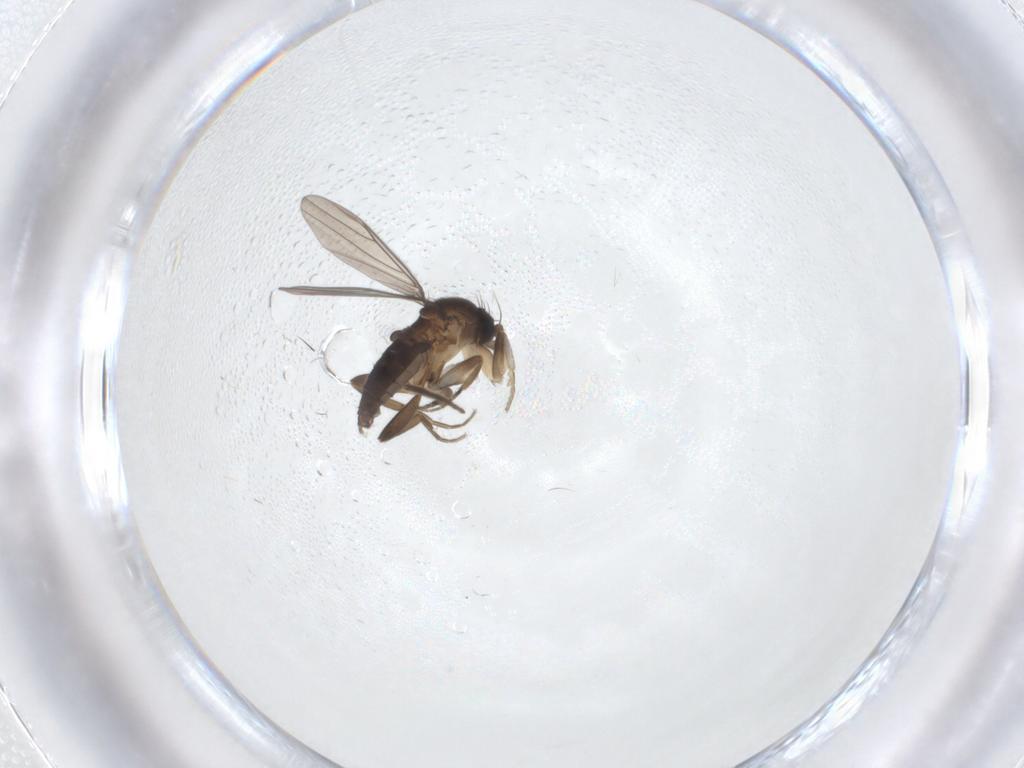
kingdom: Animalia
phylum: Arthropoda
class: Insecta
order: Diptera
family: Sciaridae
